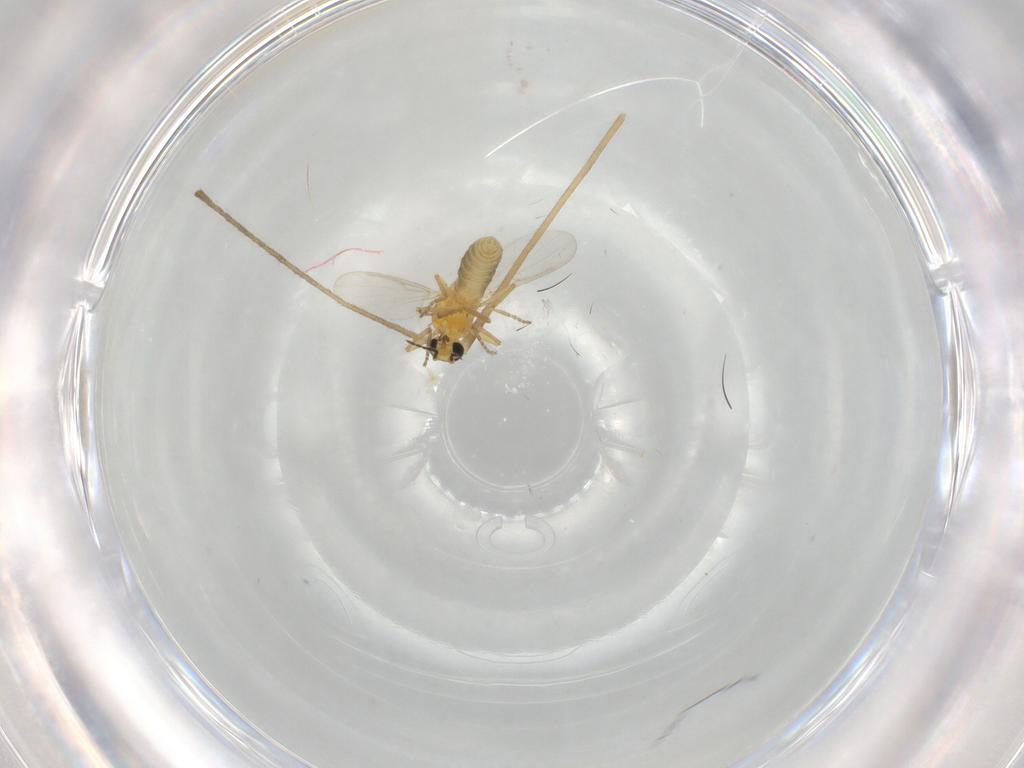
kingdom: Animalia
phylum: Arthropoda
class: Insecta
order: Diptera
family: Limoniidae
